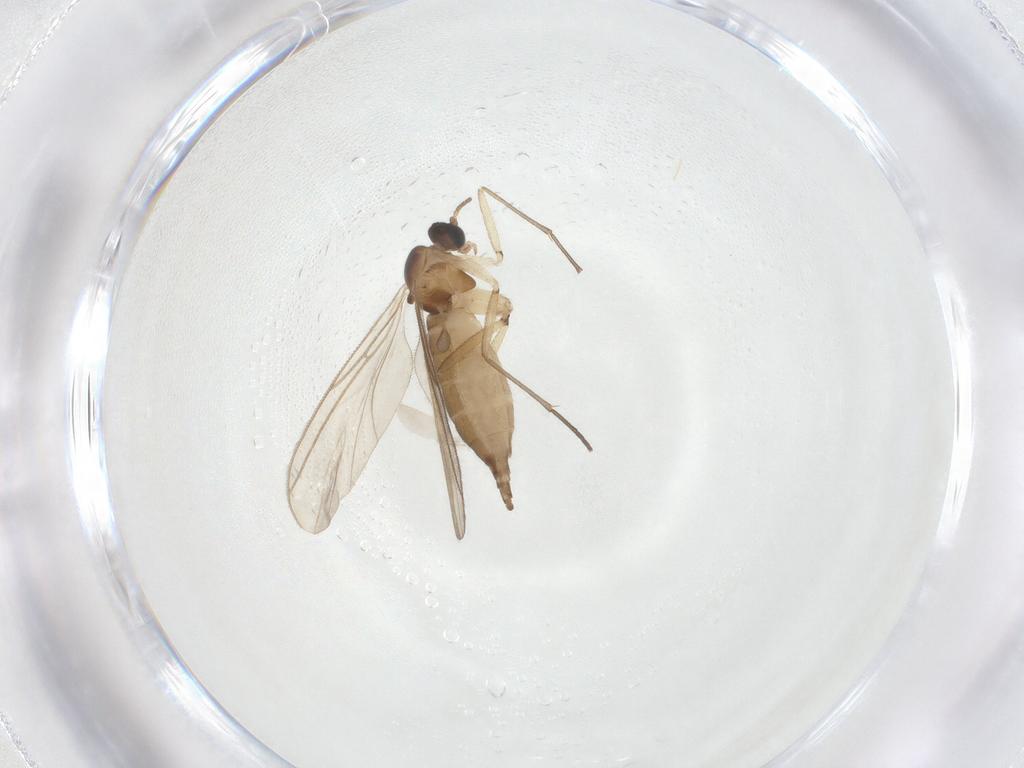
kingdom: Animalia
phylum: Arthropoda
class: Insecta
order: Diptera
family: Sciaridae
